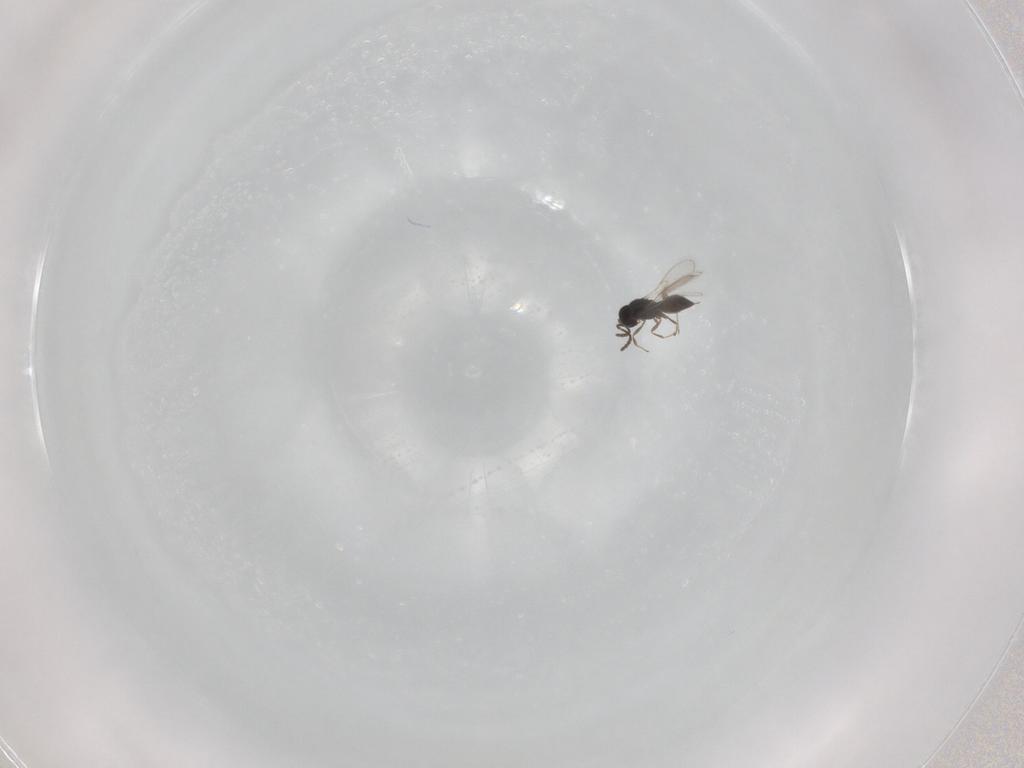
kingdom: Animalia
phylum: Arthropoda
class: Insecta
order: Hymenoptera
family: Scelionidae
